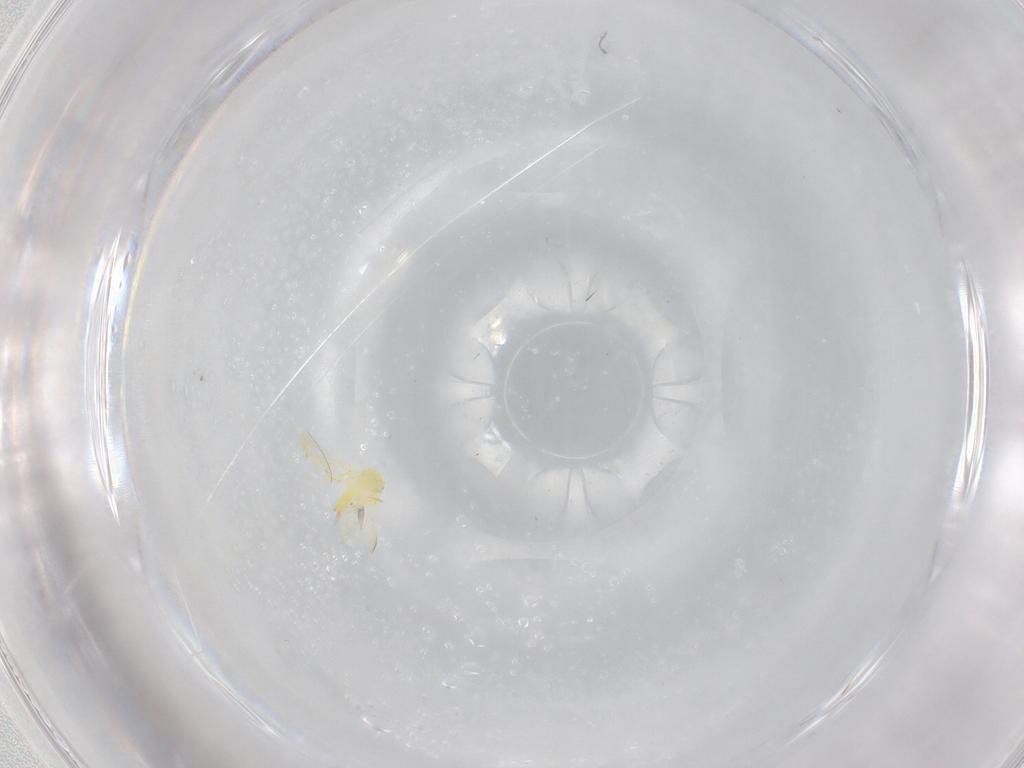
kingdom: Animalia
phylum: Arthropoda
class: Insecta
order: Hemiptera
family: Aleyrodidae
